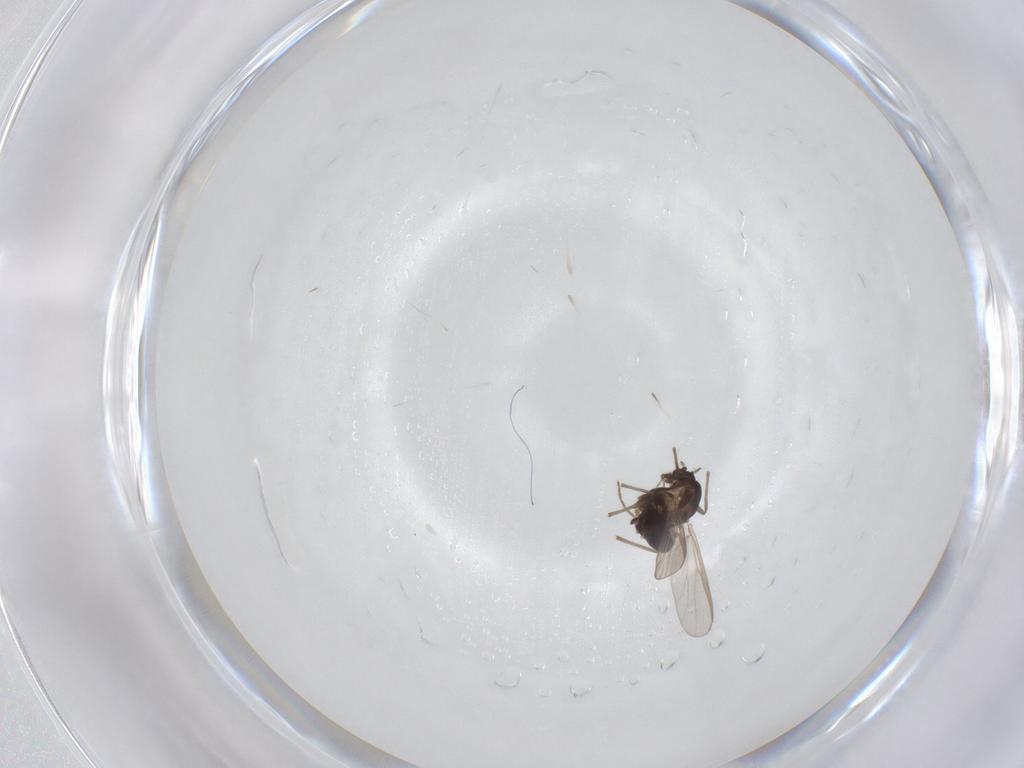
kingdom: Animalia
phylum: Arthropoda
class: Insecta
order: Diptera
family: Chironomidae
